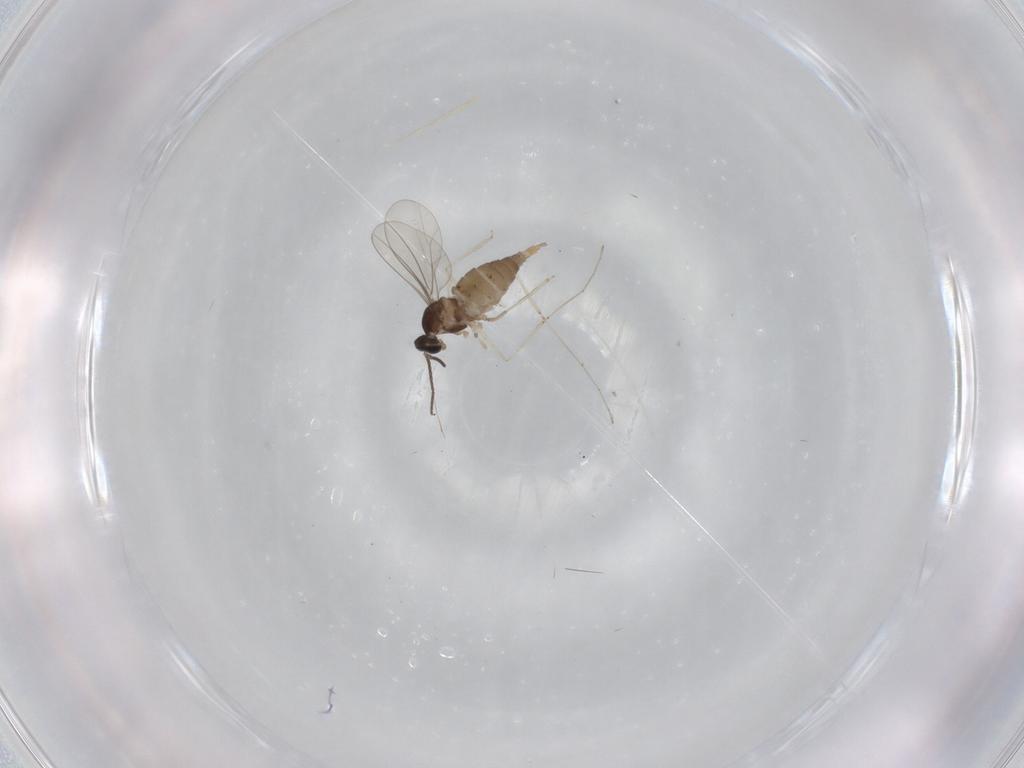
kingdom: Animalia
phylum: Arthropoda
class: Insecta
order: Diptera
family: Cecidomyiidae
